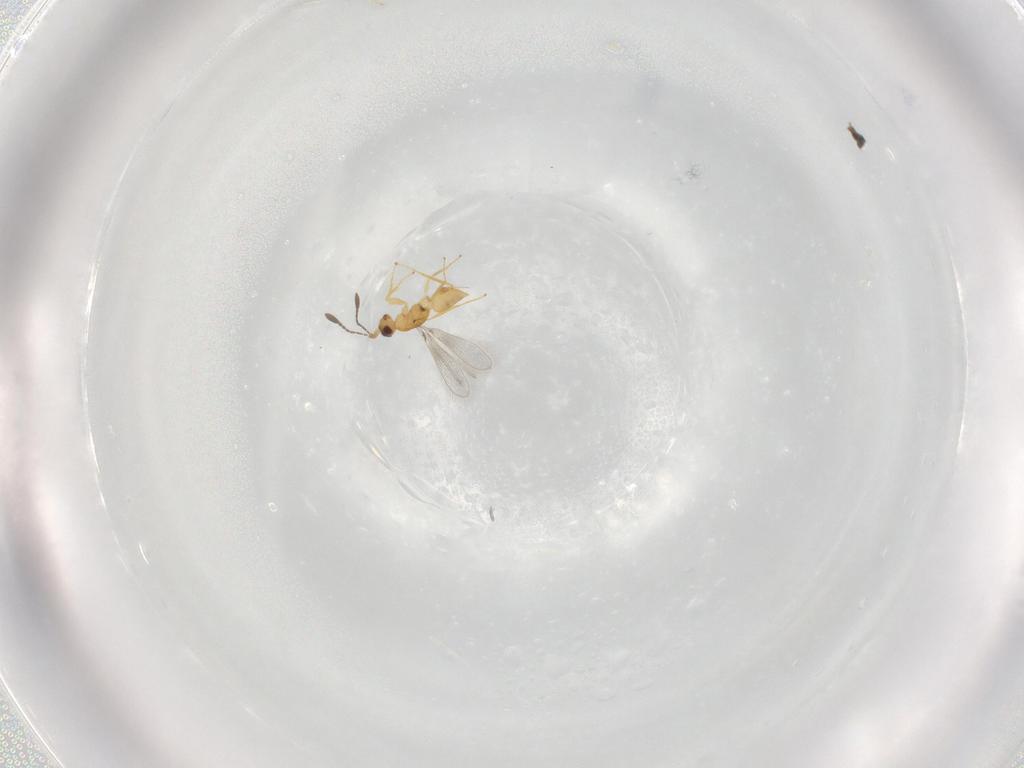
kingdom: Animalia
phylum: Arthropoda
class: Insecta
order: Hymenoptera
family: Mymaridae
